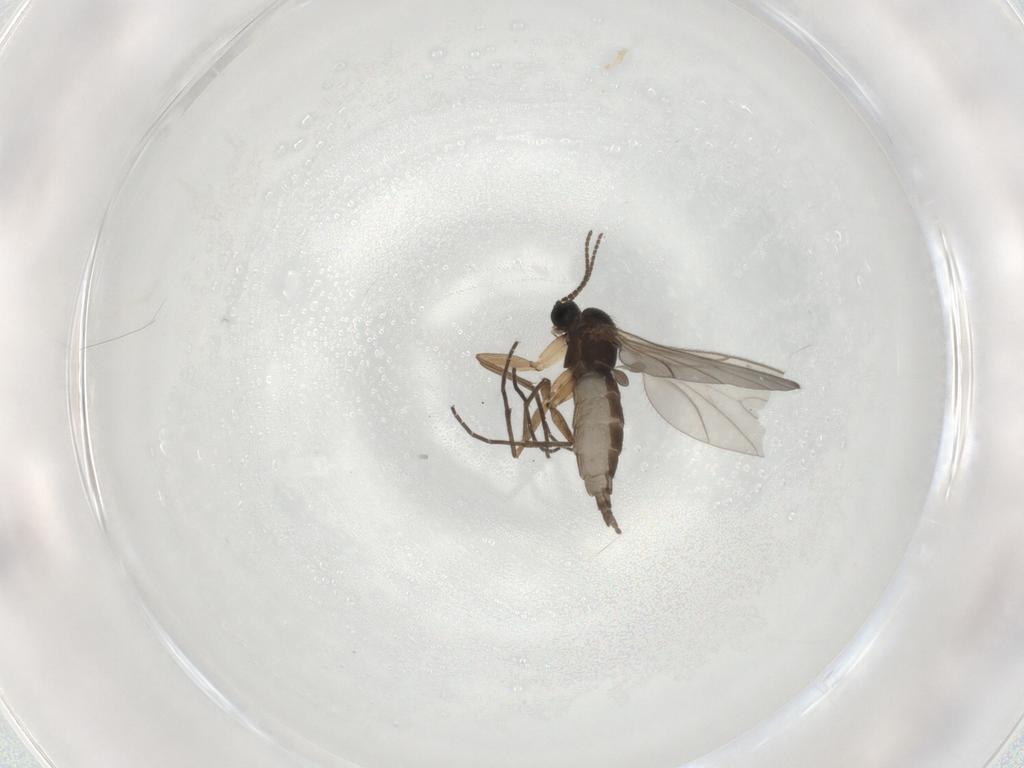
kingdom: Animalia
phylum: Arthropoda
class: Insecta
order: Diptera
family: Sciaridae
